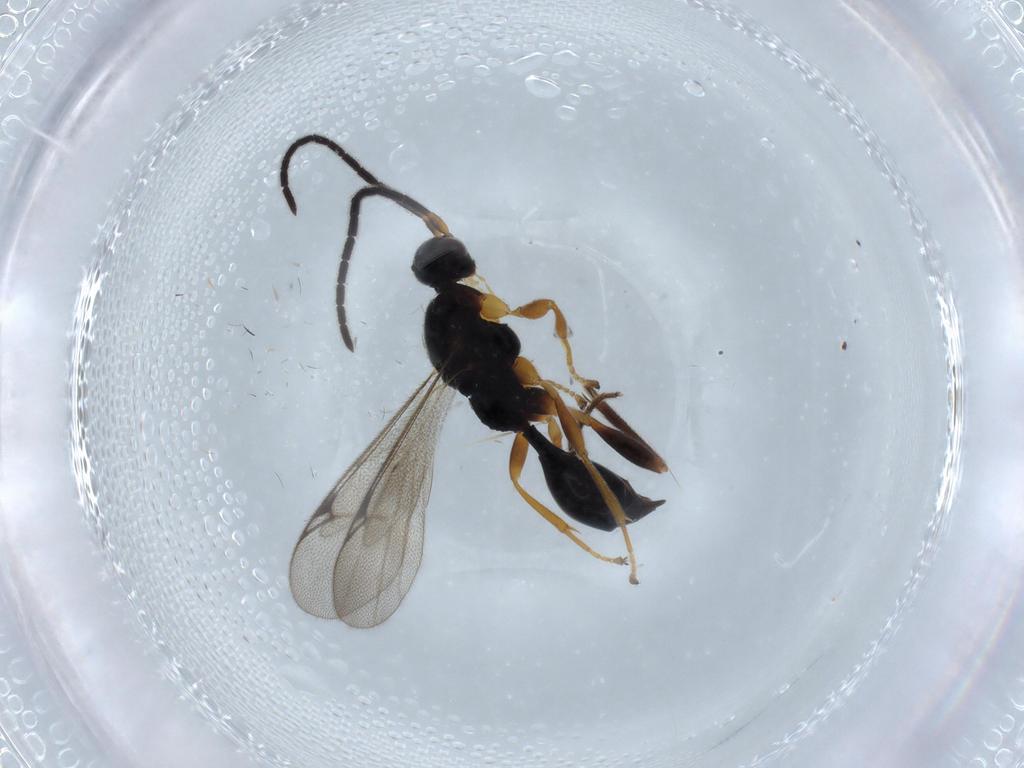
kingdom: Animalia
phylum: Arthropoda
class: Insecta
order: Hymenoptera
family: Proctotrupidae
